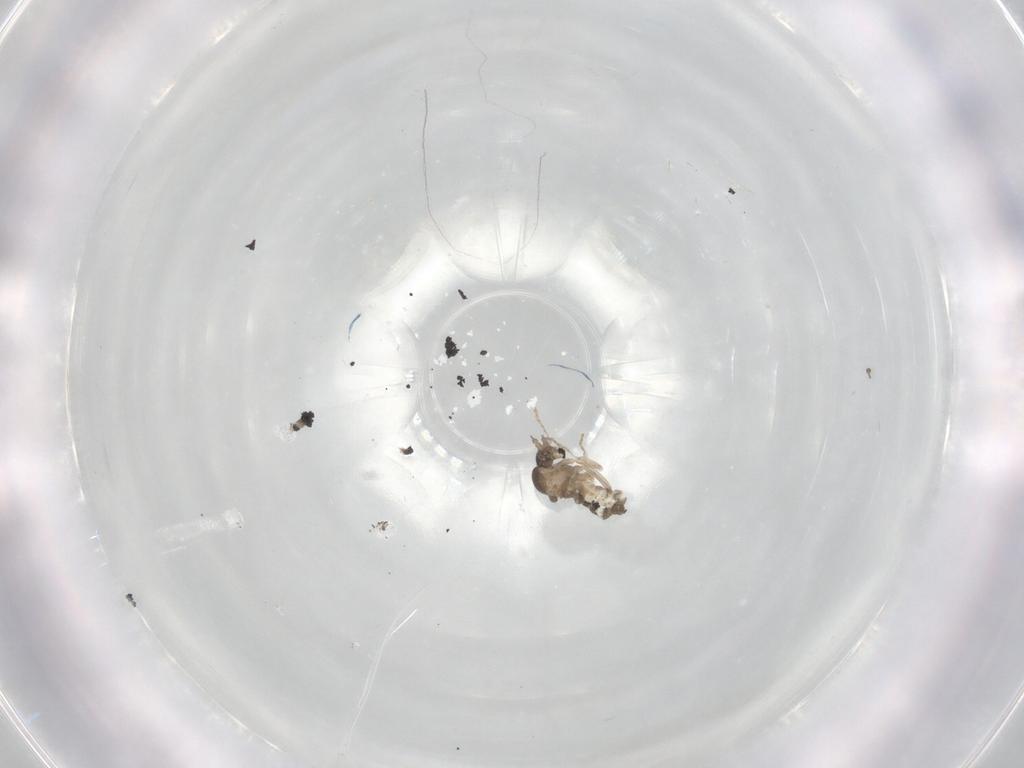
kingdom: Animalia
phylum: Arthropoda
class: Insecta
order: Diptera
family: Cecidomyiidae
